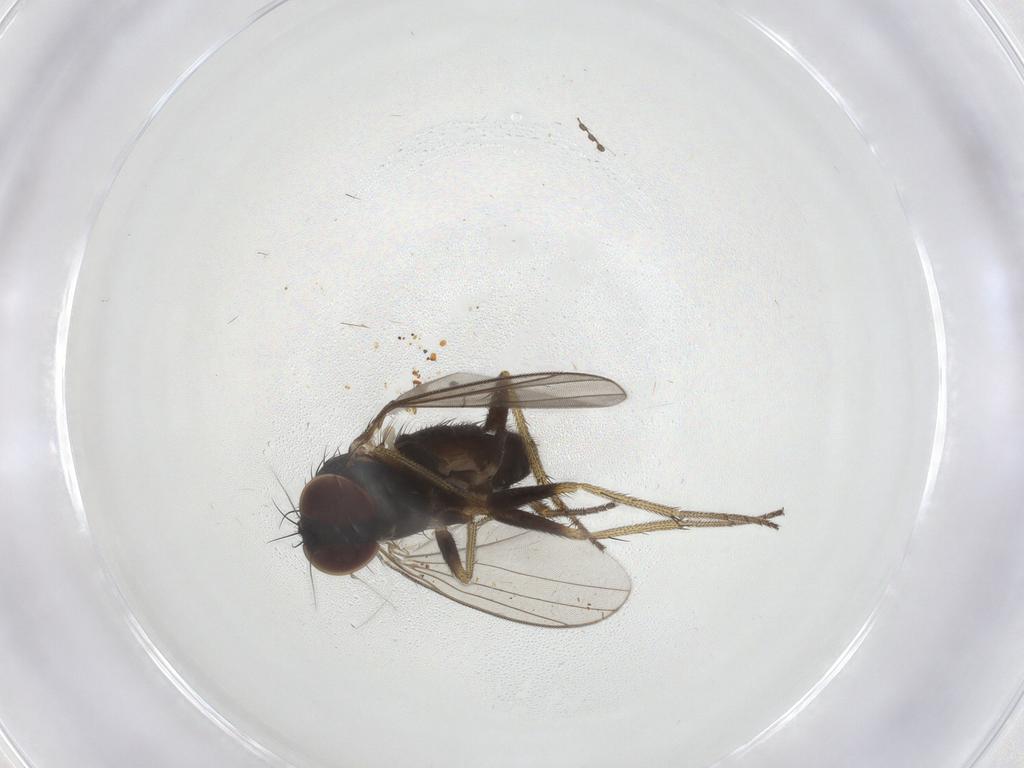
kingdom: Animalia
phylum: Arthropoda
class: Insecta
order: Diptera
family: Dolichopodidae
